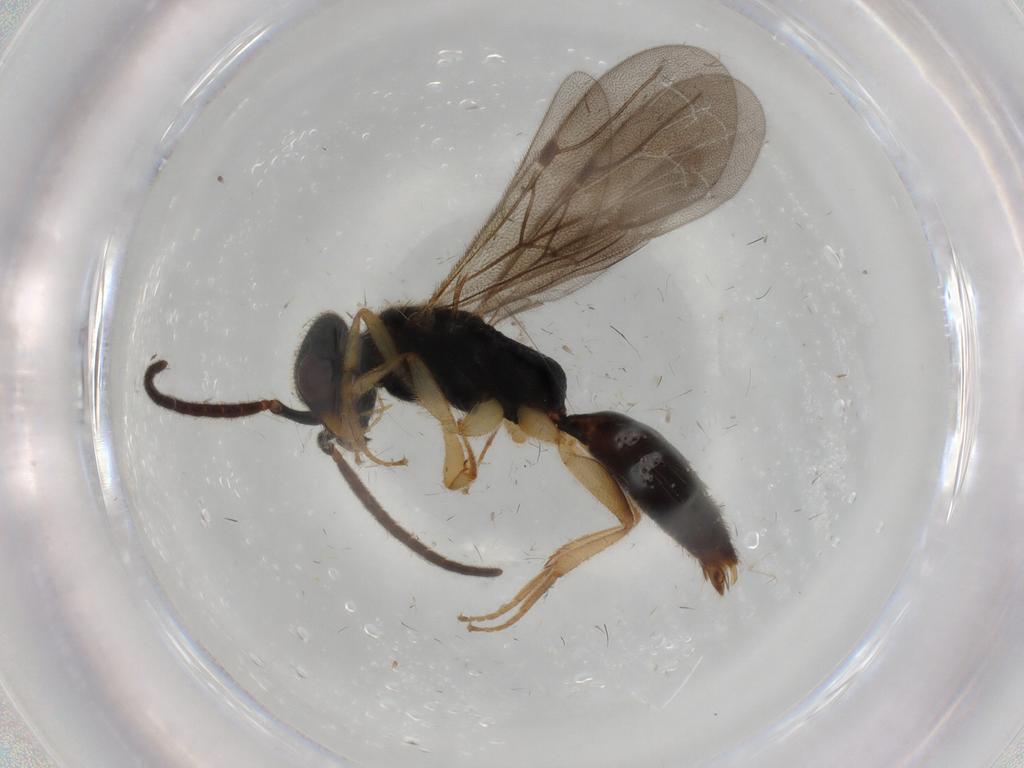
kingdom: Animalia
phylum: Arthropoda
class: Insecta
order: Hymenoptera
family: Bethylidae
